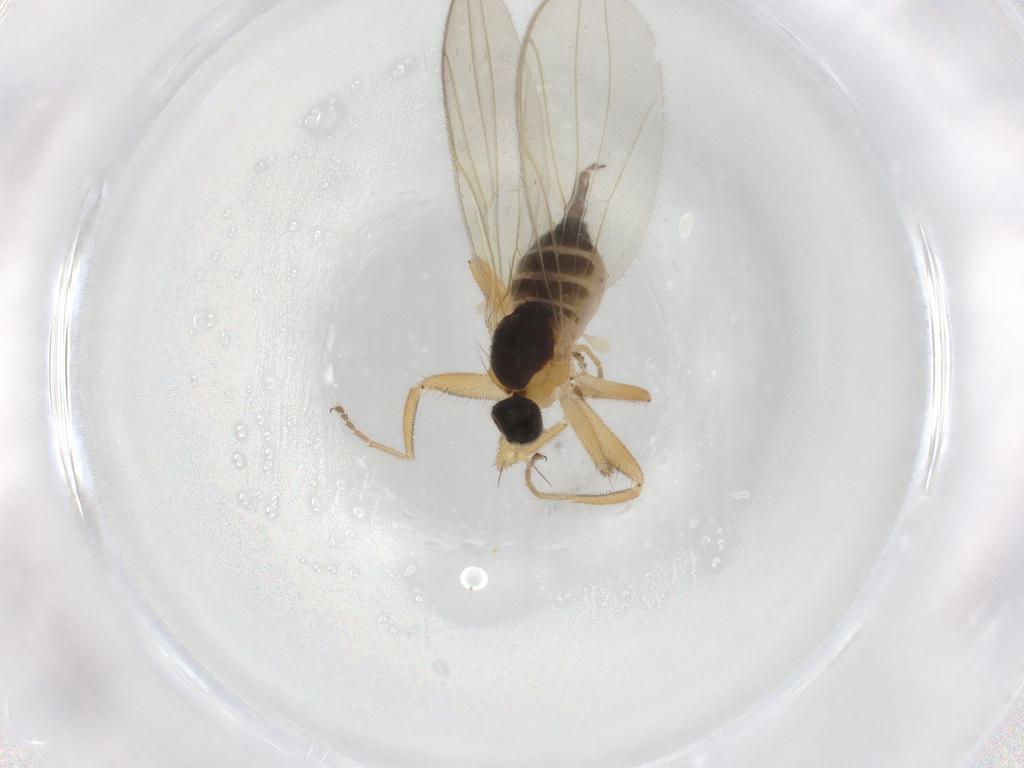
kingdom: Animalia
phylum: Arthropoda
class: Insecta
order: Diptera
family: Hybotidae
